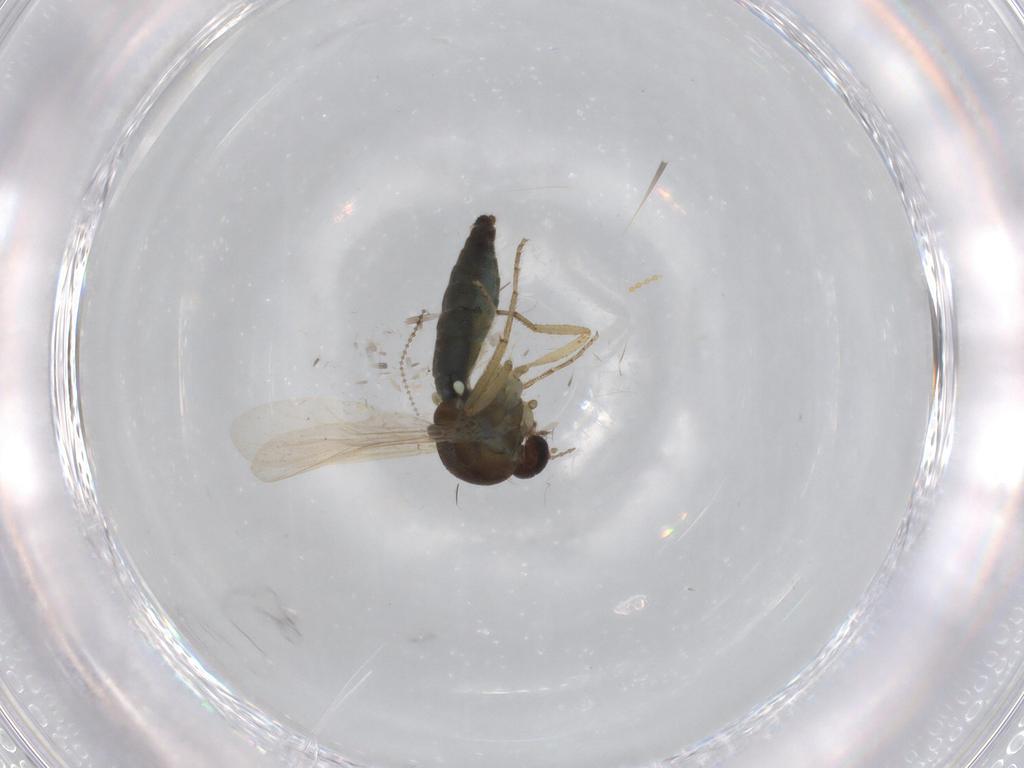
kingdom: Animalia
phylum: Arthropoda
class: Insecta
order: Diptera
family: Ceratopogonidae
